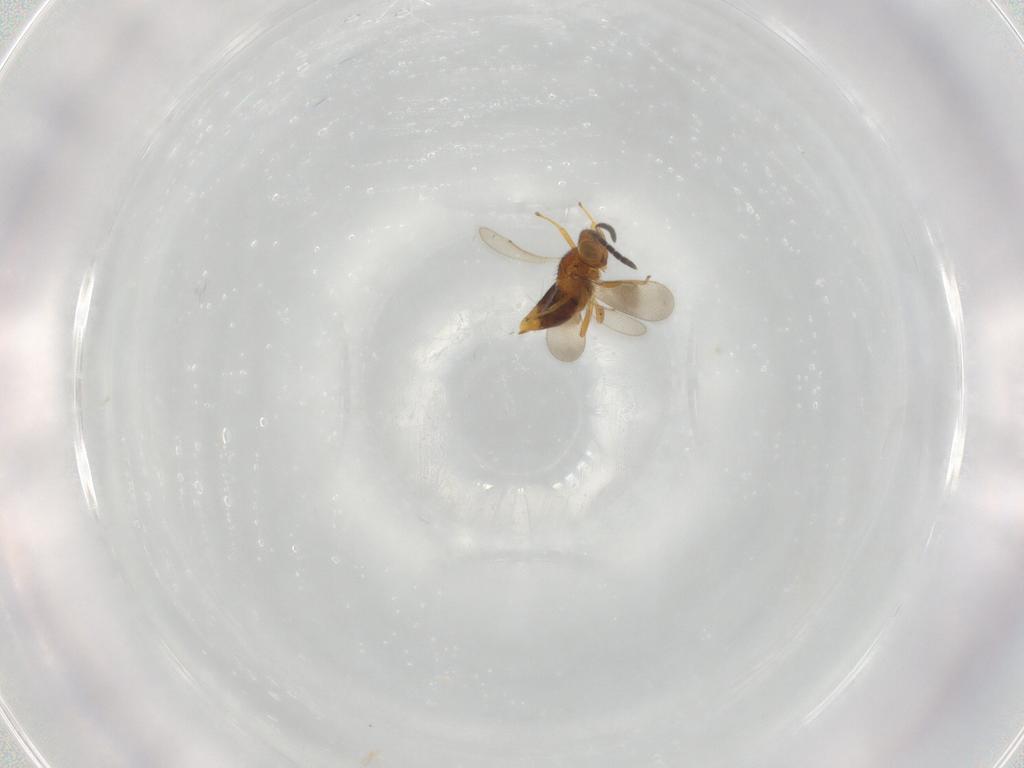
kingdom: Animalia
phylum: Arthropoda
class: Insecta
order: Hymenoptera
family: Aphelinidae
